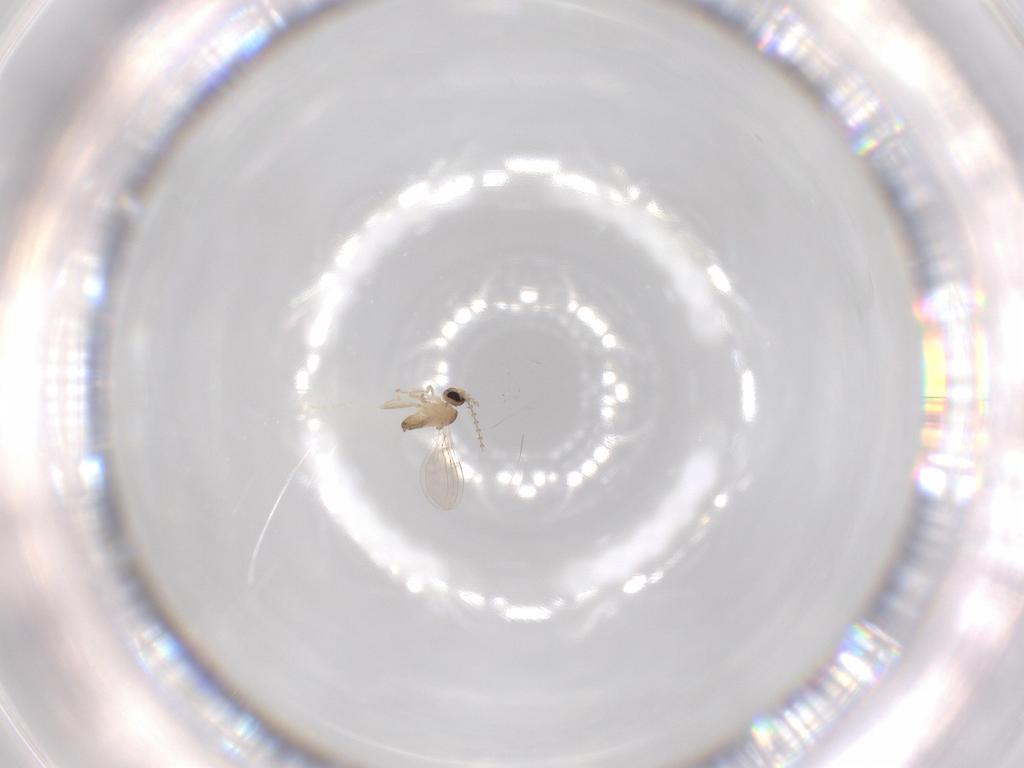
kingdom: Animalia
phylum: Arthropoda
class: Insecta
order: Diptera
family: Cecidomyiidae
